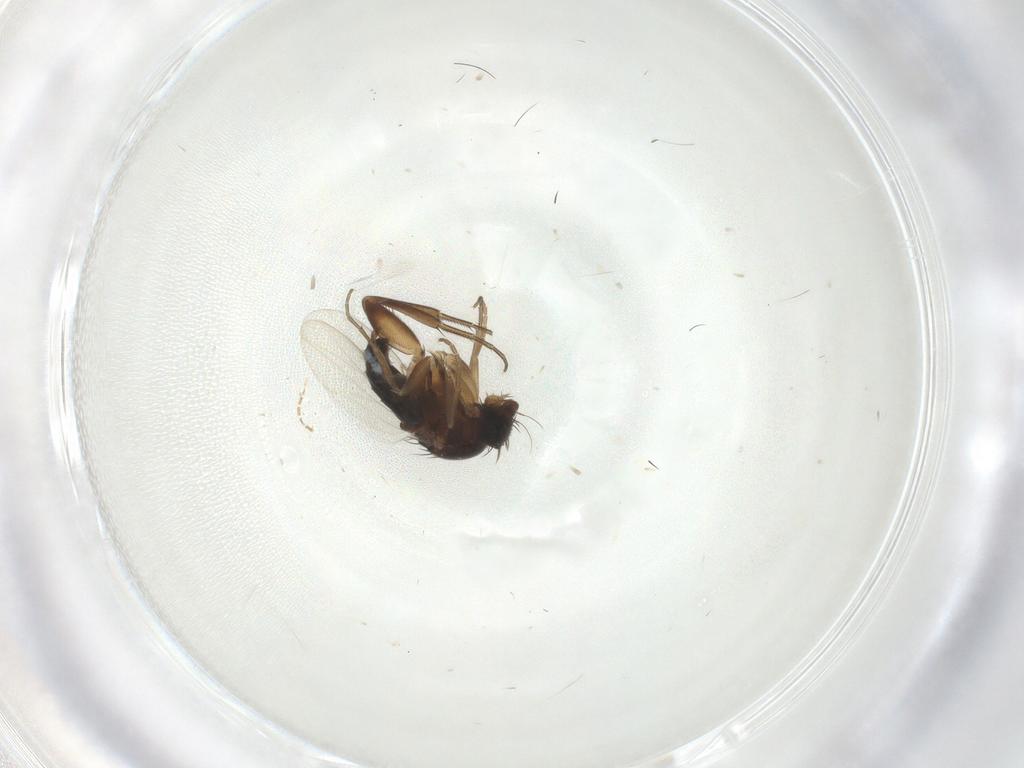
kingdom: Animalia
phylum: Arthropoda
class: Insecta
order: Diptera
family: Phoridae
